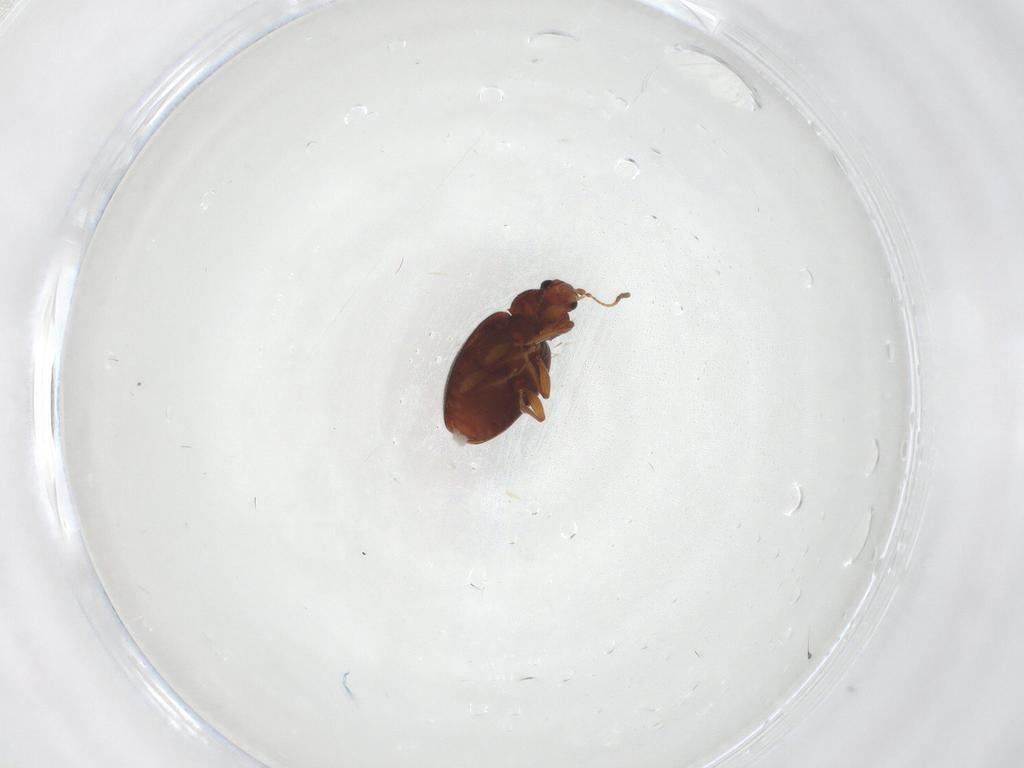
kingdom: Animalia
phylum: Arthropoda
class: Insecta
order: Coleoptera
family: Latridiidae
